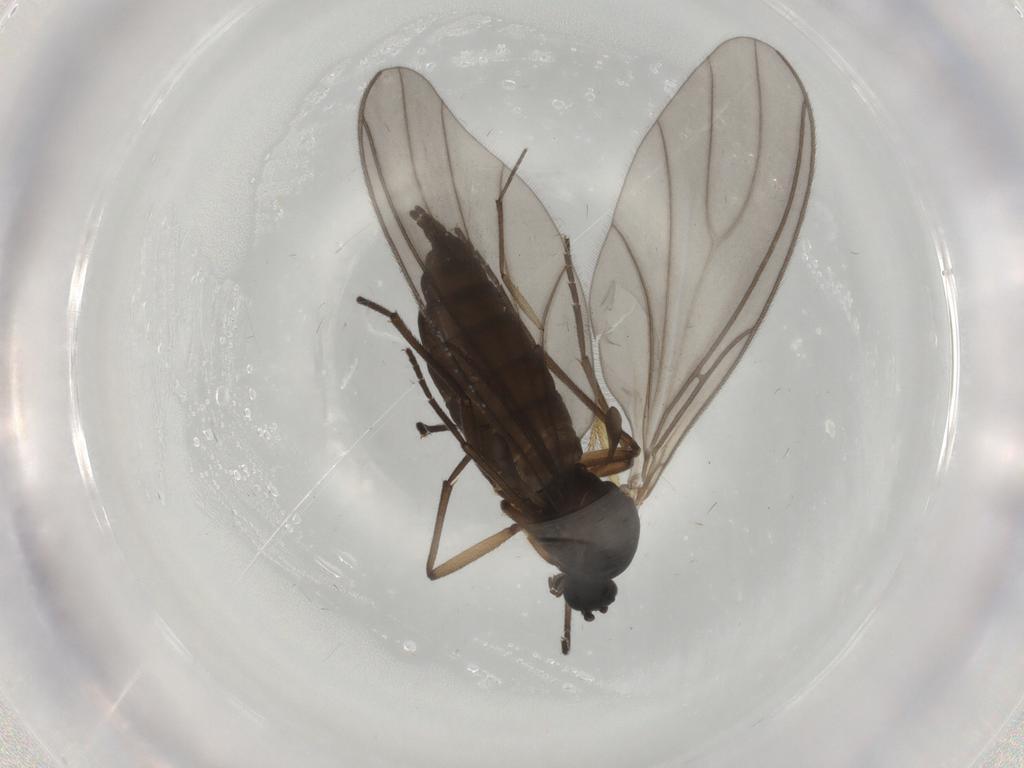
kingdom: Animalia
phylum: Arthropoda
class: Insecta
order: Diptera
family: Sciaridae
